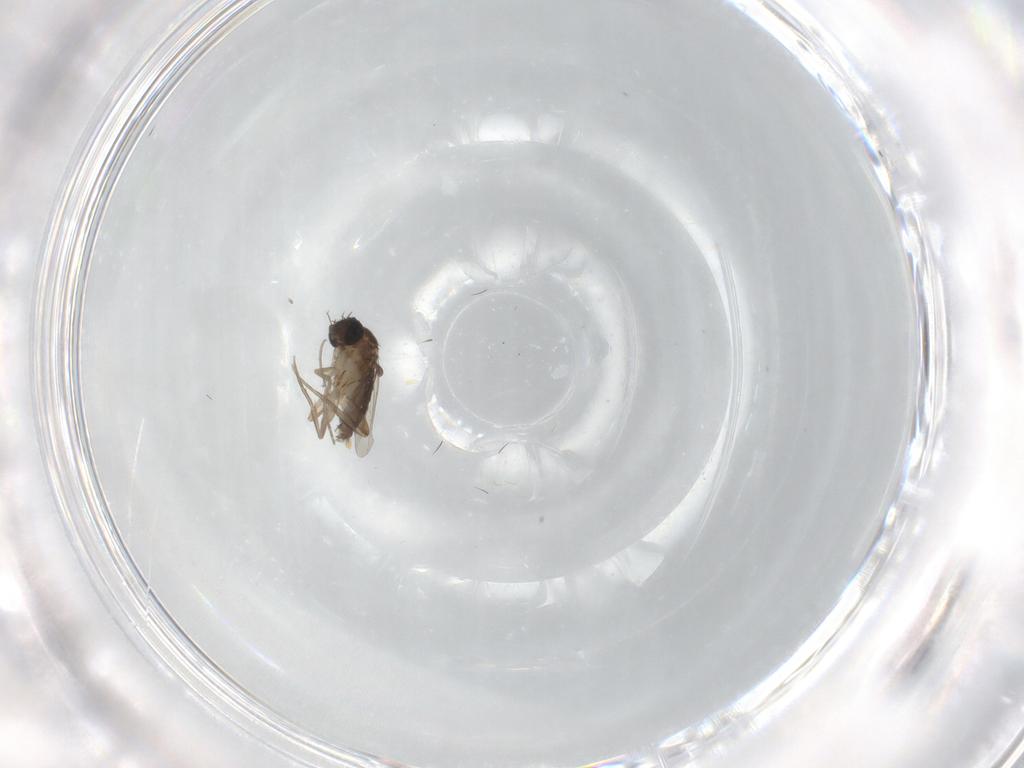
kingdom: Animalia
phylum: Arthropoda
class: Insecta
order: Diptera
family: Phoridae
